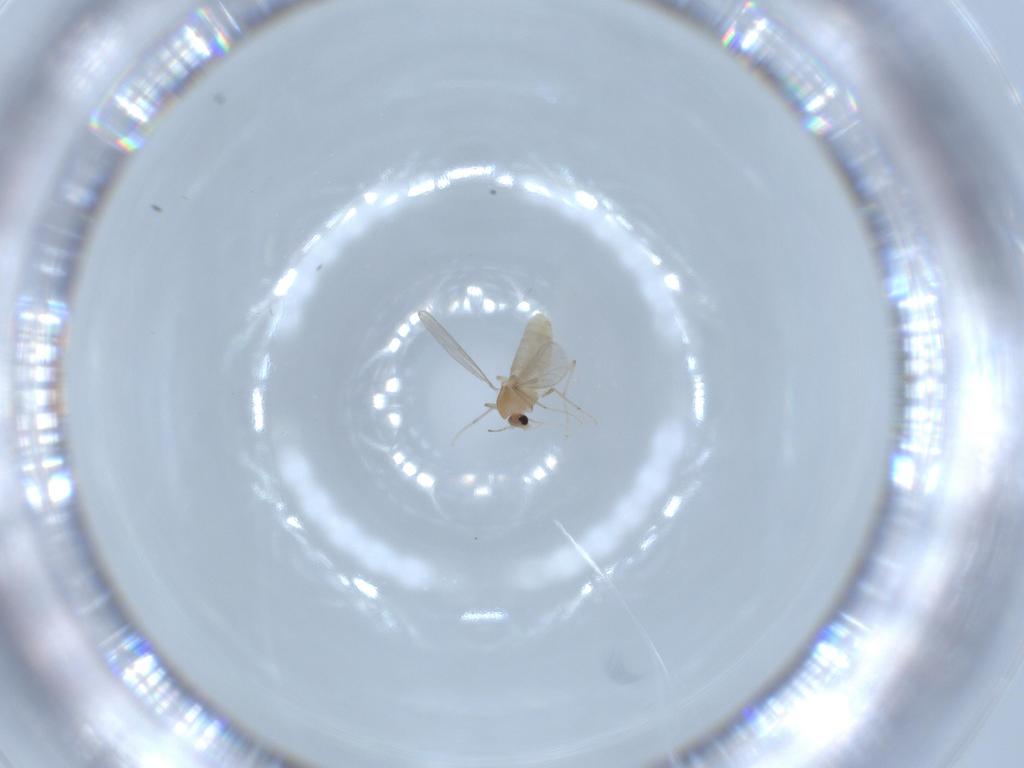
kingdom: Animalia
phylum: Arthropoda
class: Insecta
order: Diptera
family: Chironomidae
